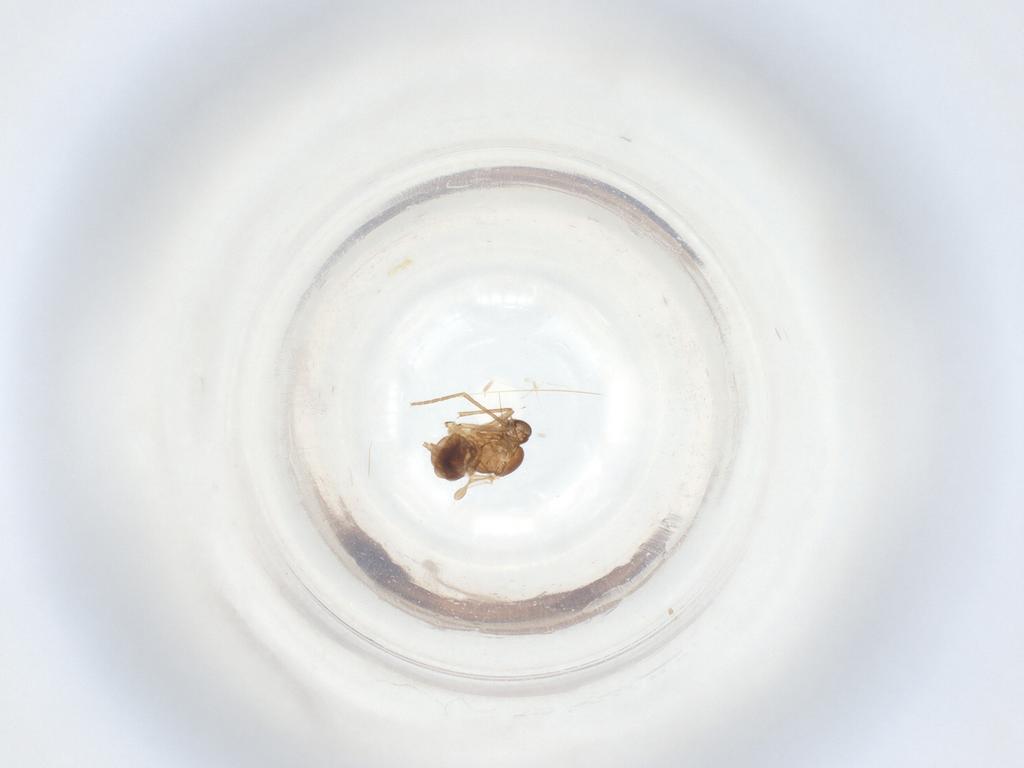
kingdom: Animalia
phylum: Arthropoda
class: Insecta
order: Diptera
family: Sciaridae
